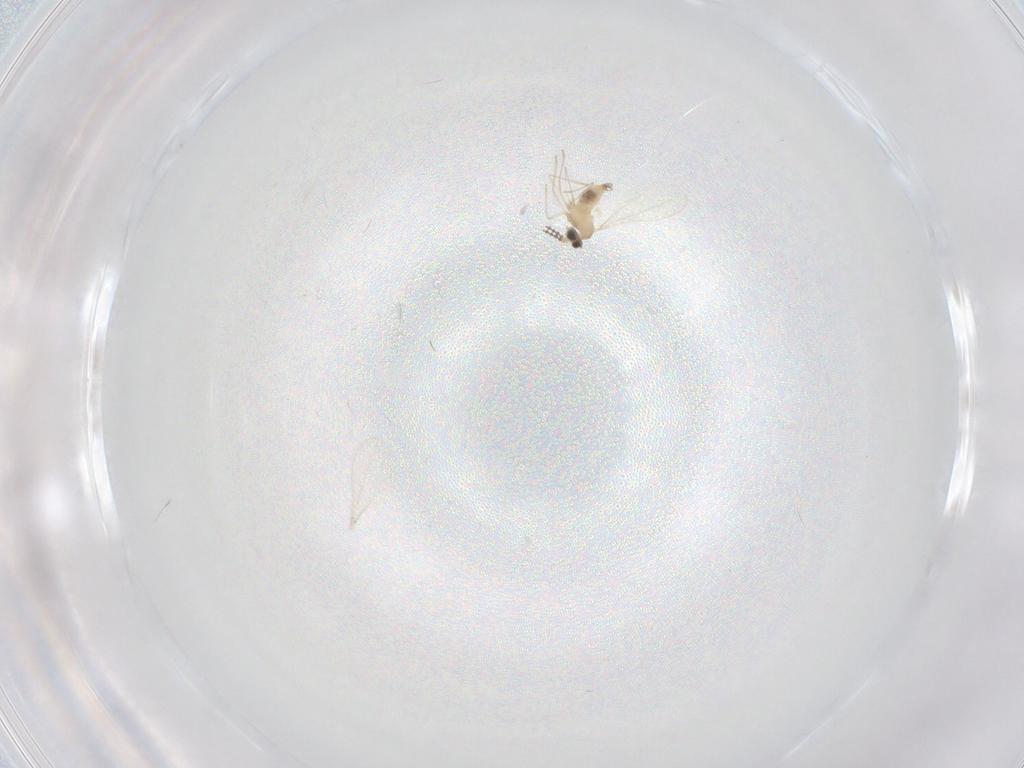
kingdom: Animalia
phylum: Arthropoda
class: Insecta
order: Diptera
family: Cecidomyiidae
